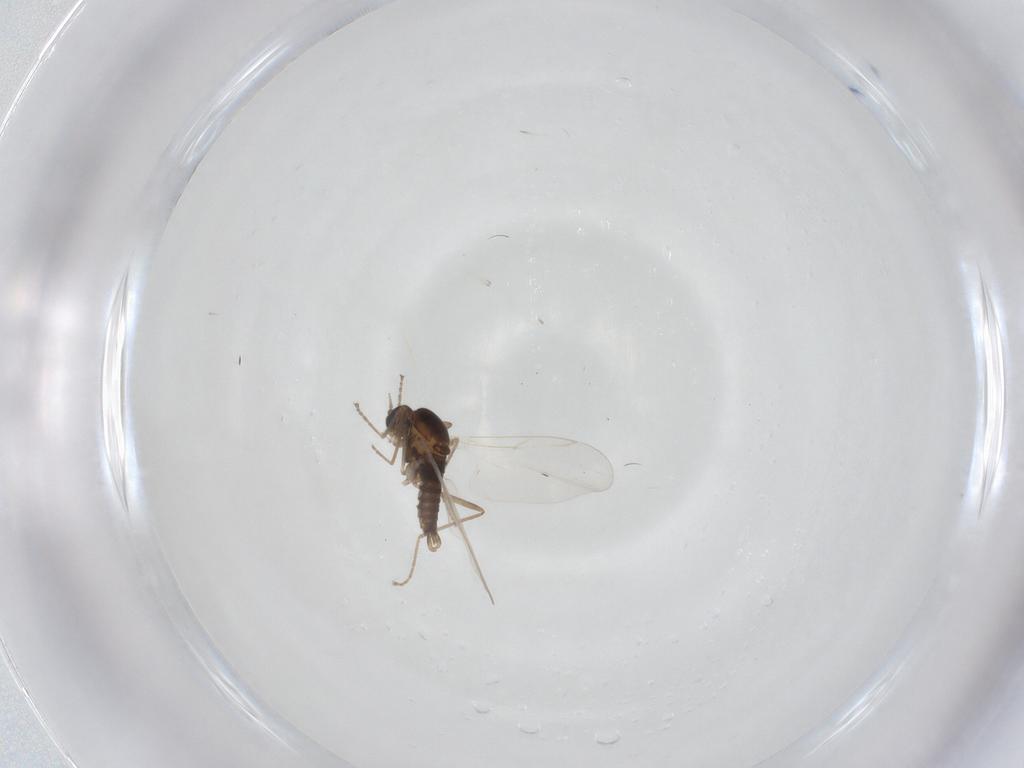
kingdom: Animalia
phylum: Arthropoda
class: Insecta
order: Diptera
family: Cecidomyiidae
